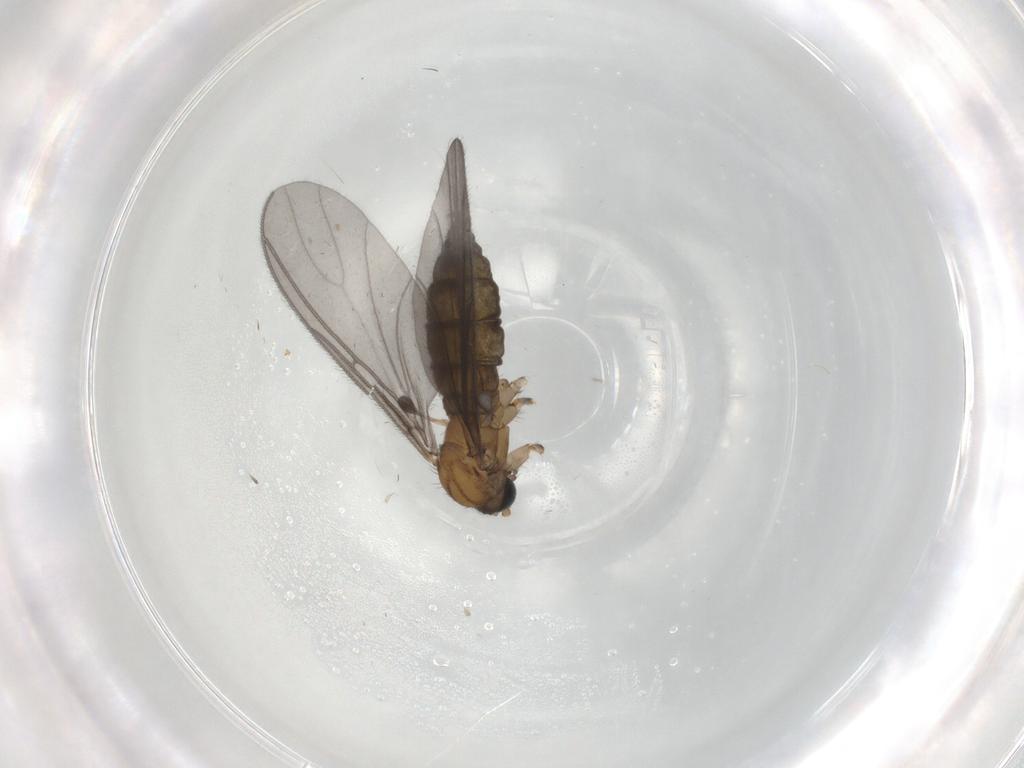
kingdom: Animalia
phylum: Arthropoda
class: Insecta
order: Diptera
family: Sciaridae
